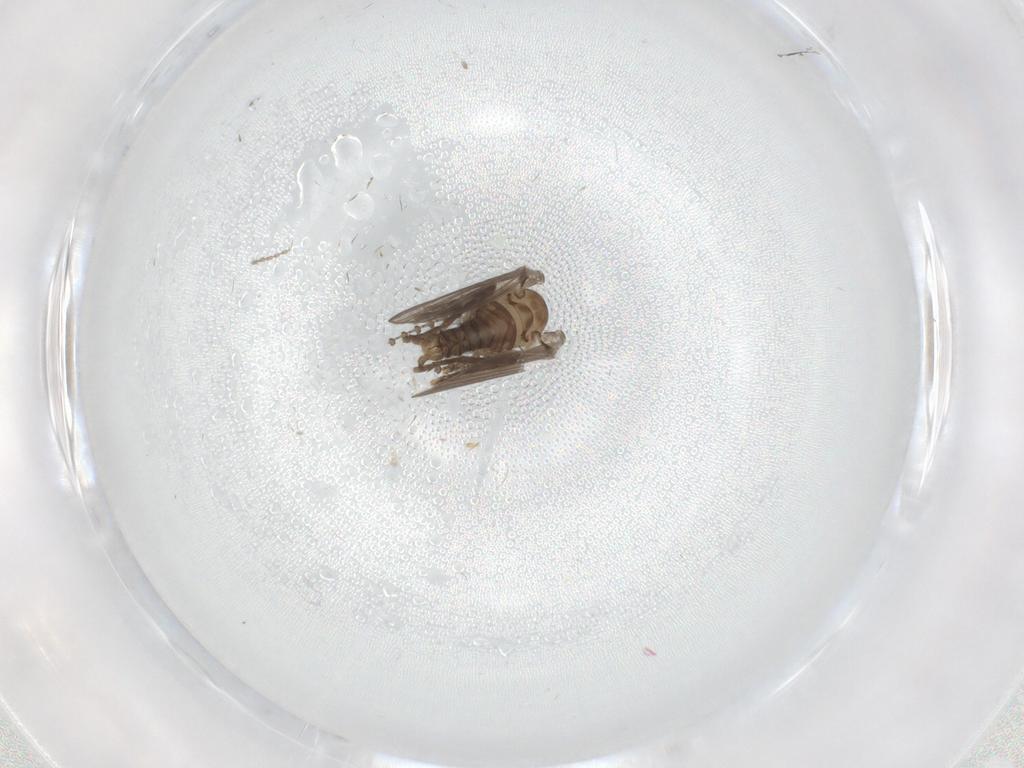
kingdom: Animalia
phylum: Arthropoda
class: Insecta
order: Diptera
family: Psychodidae
